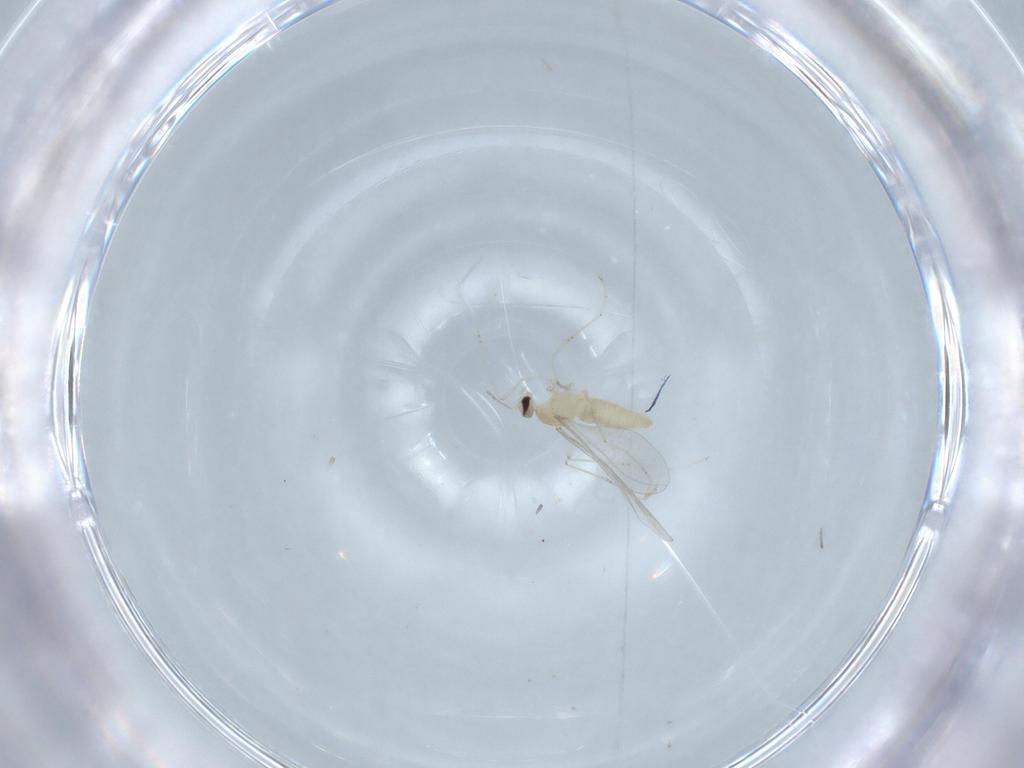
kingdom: Animalia
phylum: Arthropoda
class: Insecta
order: Diptera
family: Cecidomyiidae
